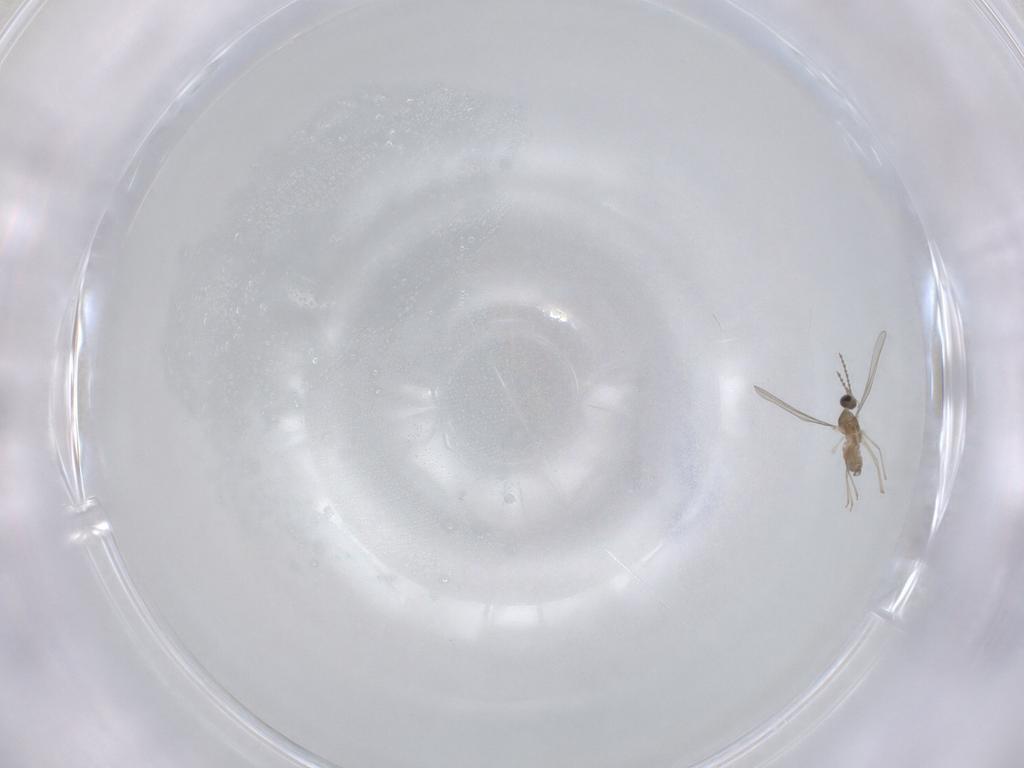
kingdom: Animalia
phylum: Arthropoda
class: Insecta
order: Diptera
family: Cecidomyiidae
